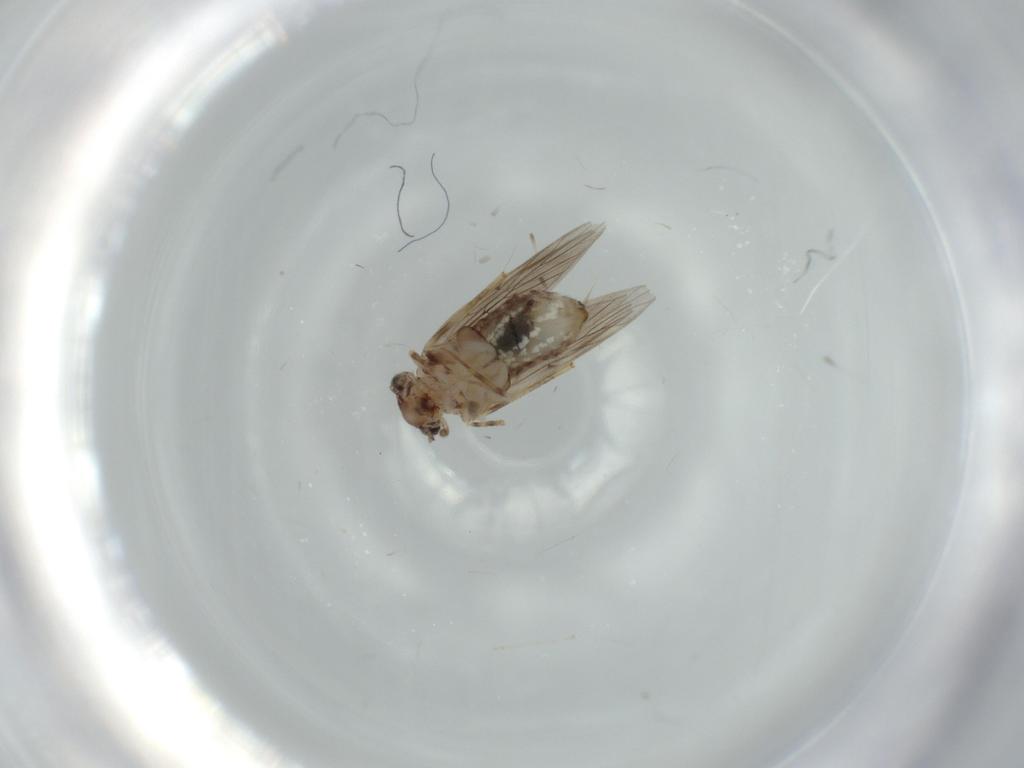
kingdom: Animalia
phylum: Arthropoda
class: Insecta
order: Psocodea
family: Lepidopsocidae
